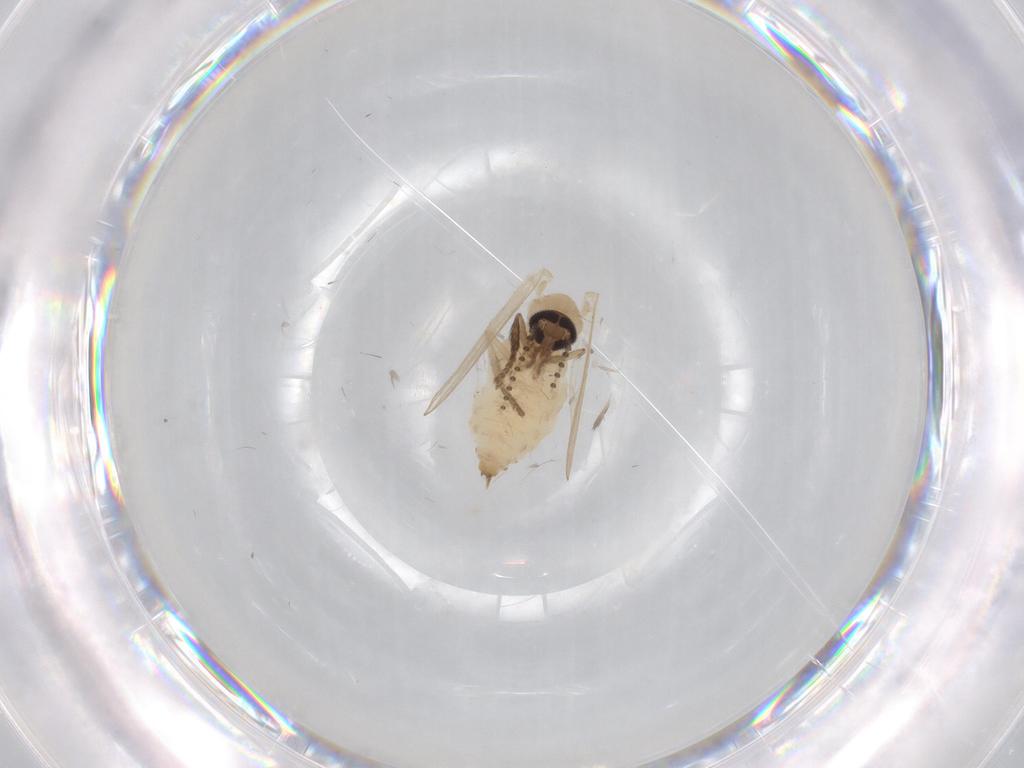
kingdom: Animalia
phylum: Arthropoda
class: Insecta
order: Diptera
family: Psychodidae
